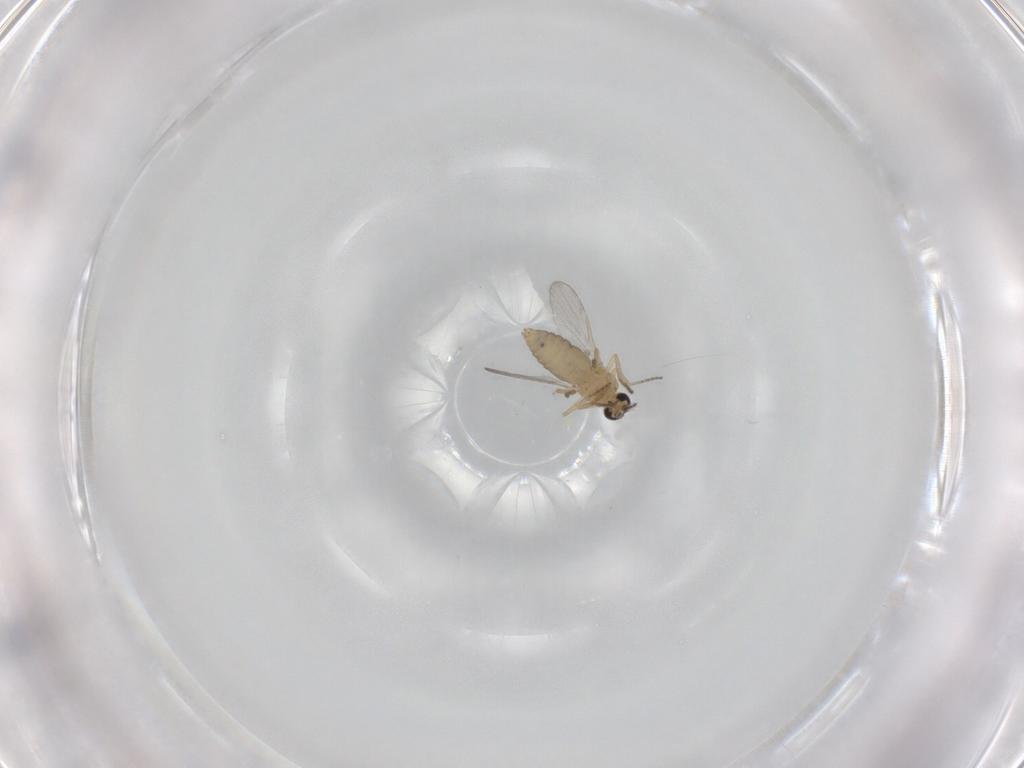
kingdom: Animalia
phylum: Arthropoda
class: Insecta
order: Diptera
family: Ceratopogonidae
